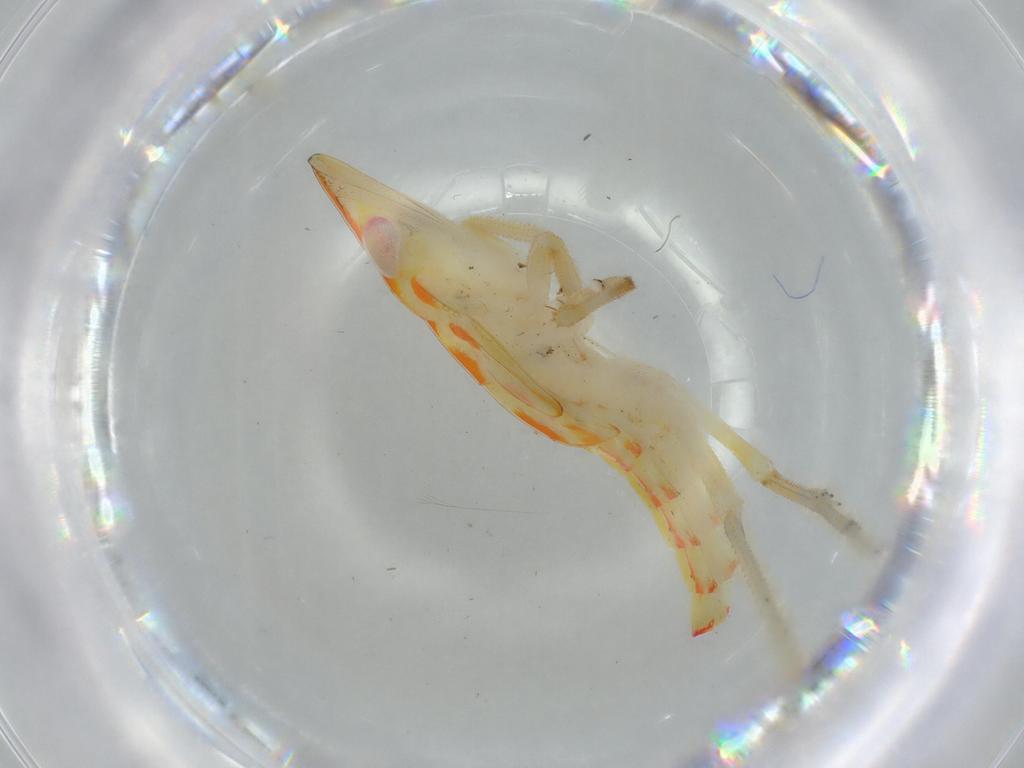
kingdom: Animalia
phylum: Arthropoda
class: Insecta
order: Hemiptera
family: Tropiduchidae
